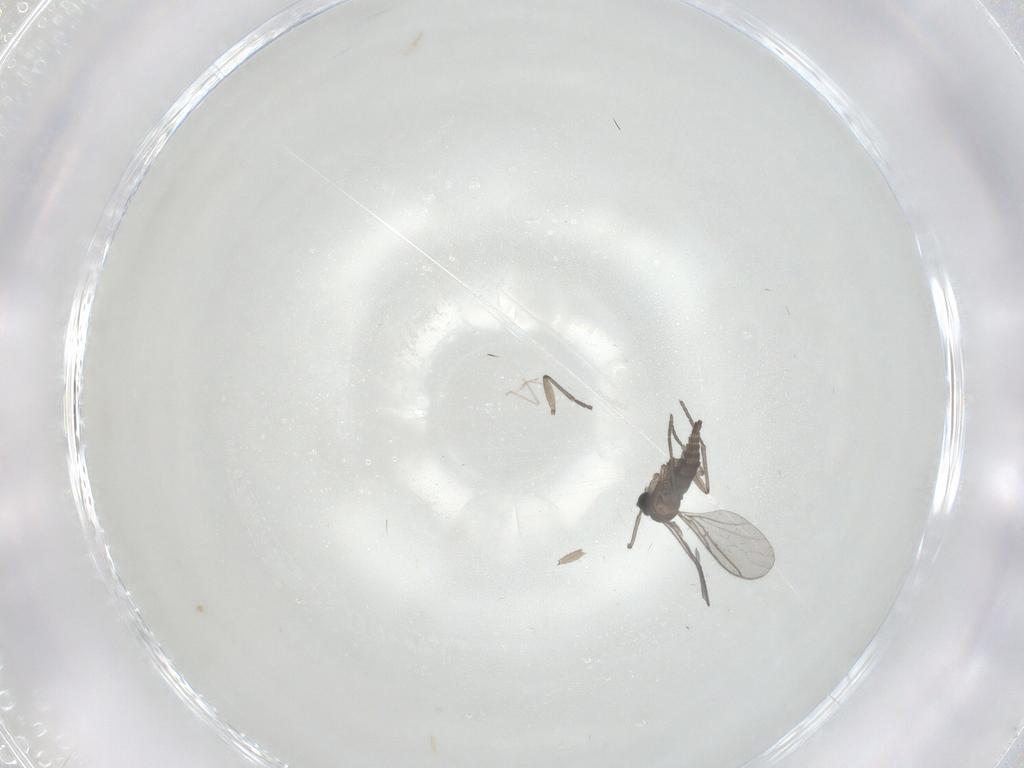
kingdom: Animalia
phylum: Arthropoda
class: Insecta
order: Diptera
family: Cecidomyiidae
